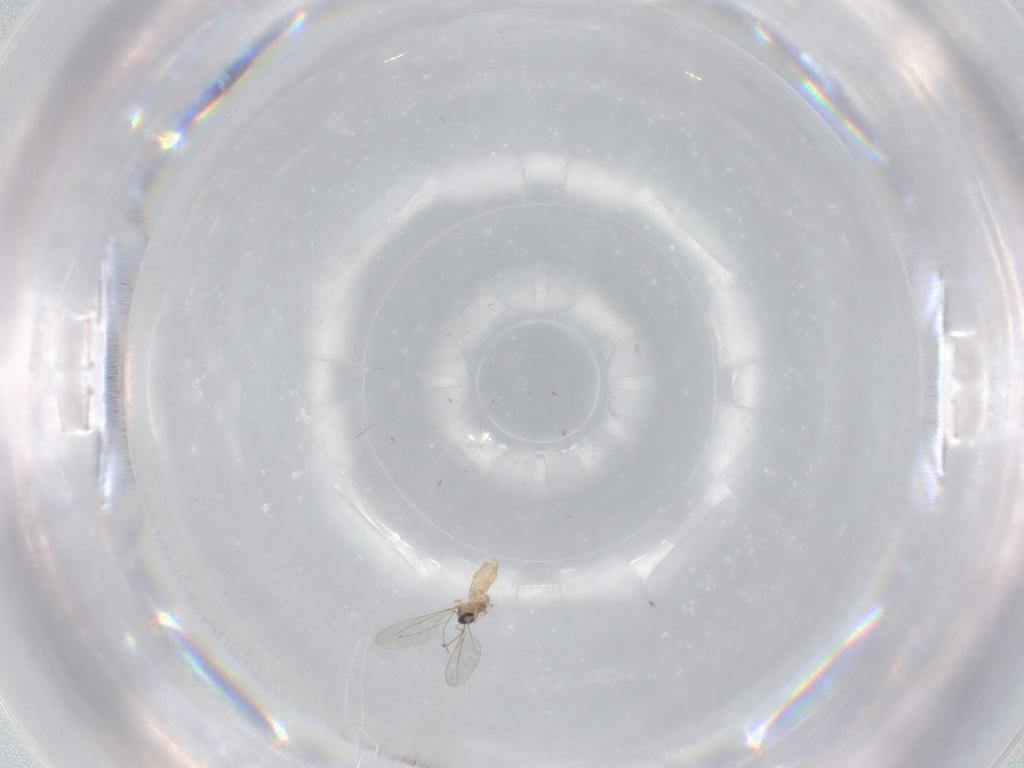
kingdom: Animalia
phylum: Arthropoda
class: Insecta
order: Diptera
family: Cecidomyiidae
